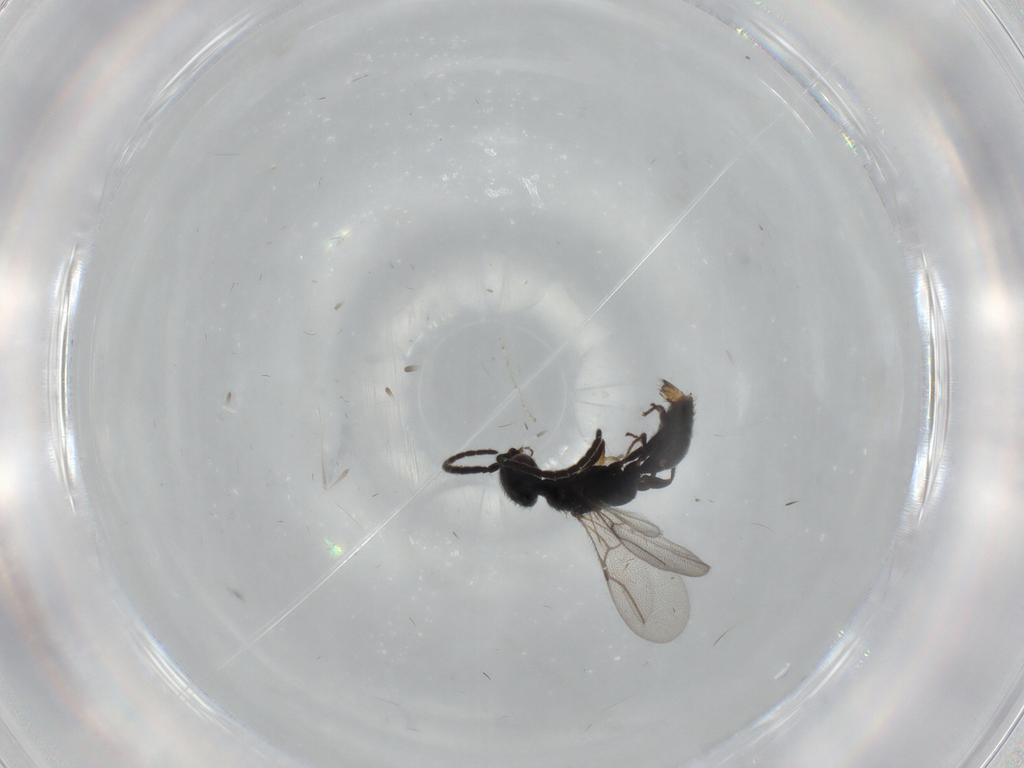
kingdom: Animalia
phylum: Arthropoda
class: Insecta
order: Hymenoptera
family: Bethylidae
